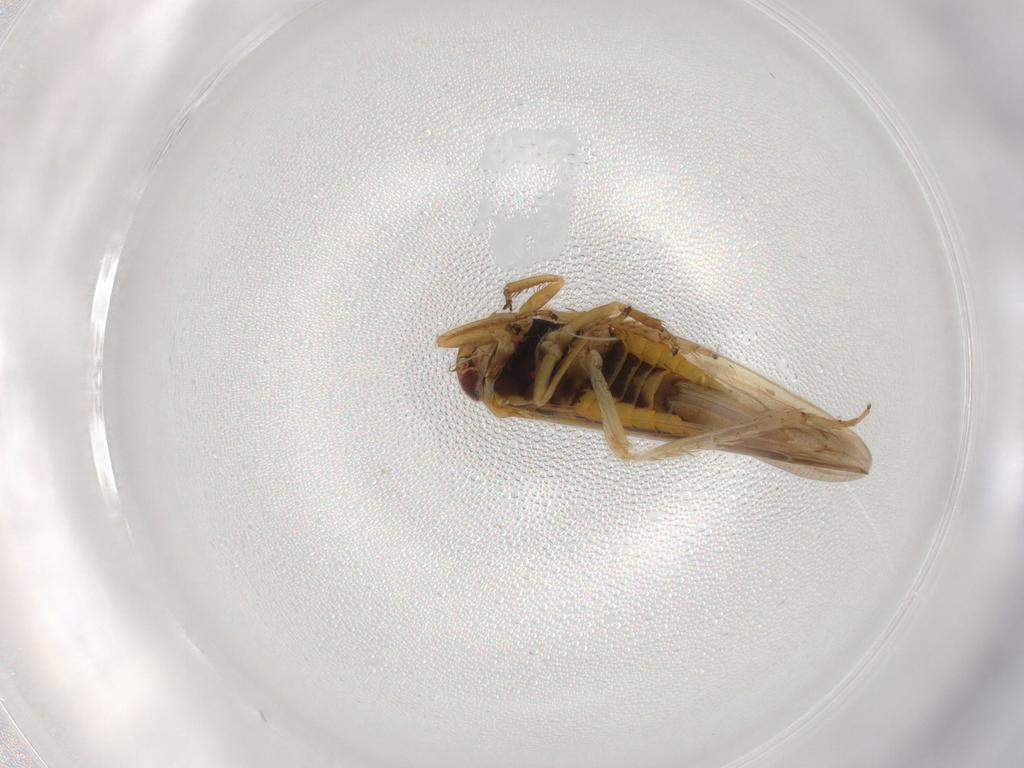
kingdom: Animalia
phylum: Arthropoda
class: Insecta
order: Hemiptera
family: Cicadellidae
